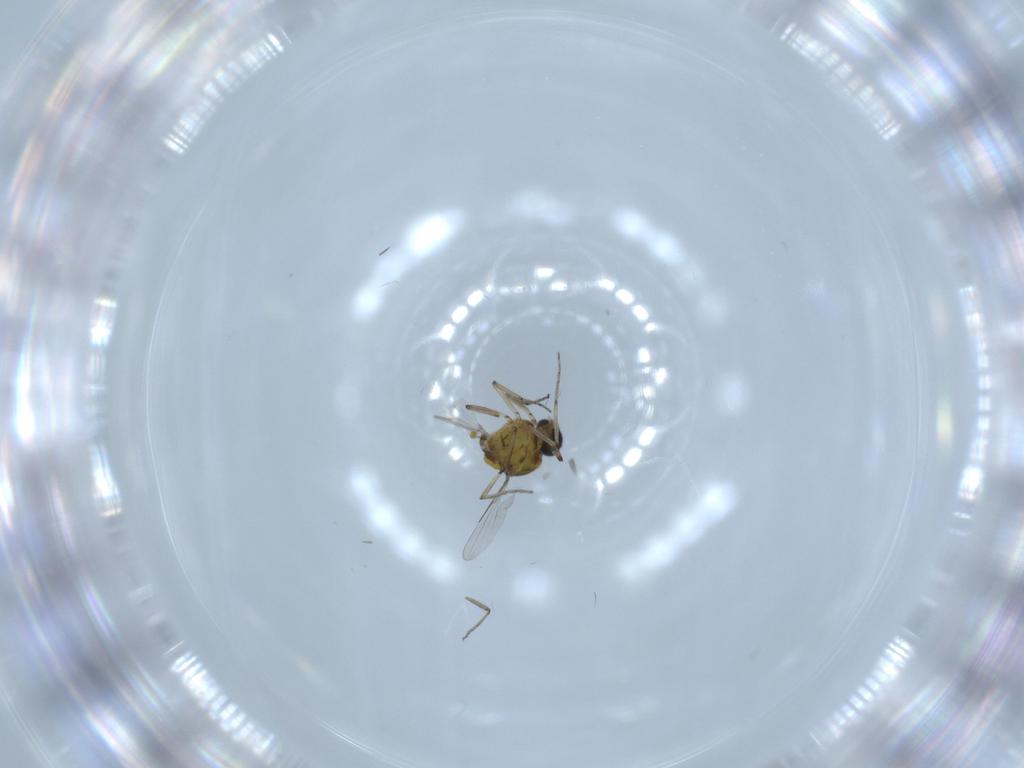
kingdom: Animalia
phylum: Arthropoda
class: Insecta
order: Diptera
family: Ceratopogonidae
